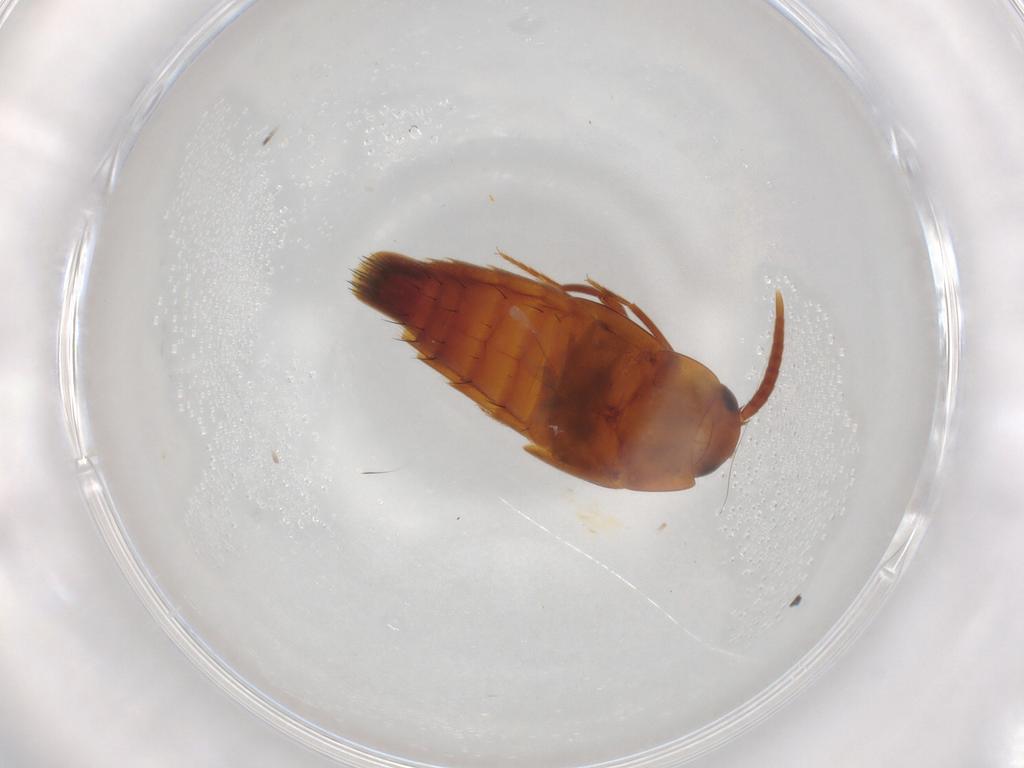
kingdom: Animalia
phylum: Arthropoda
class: Insecta
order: Coleoptera
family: Staphylinidae
